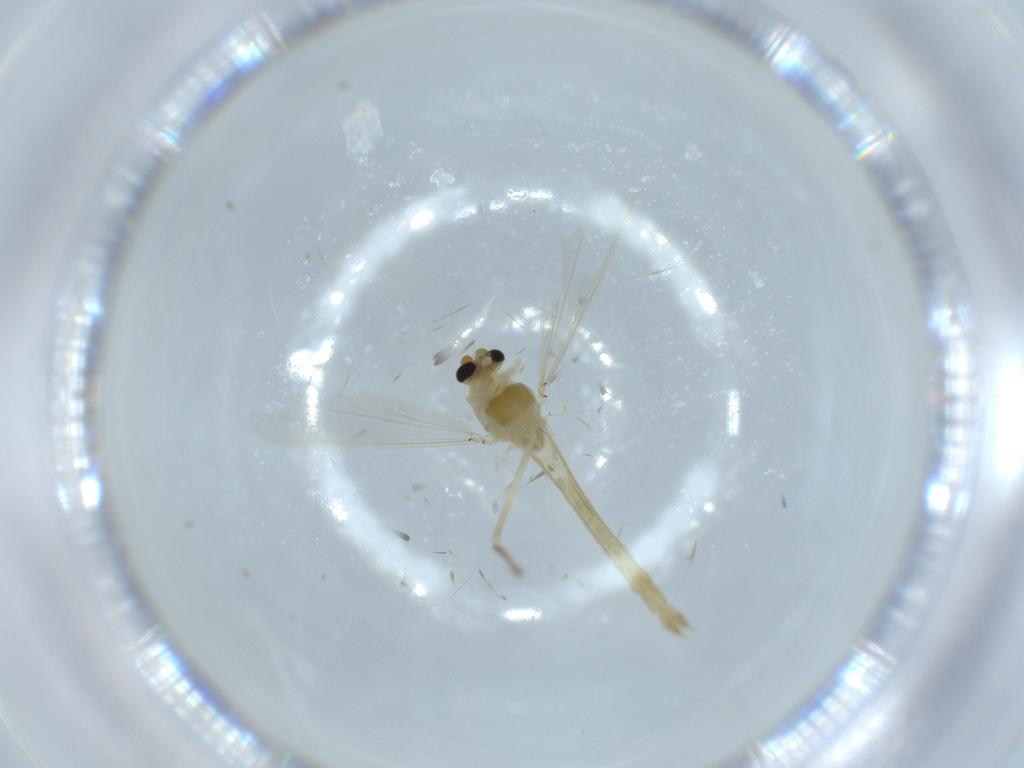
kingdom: Animalia
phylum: Arthropoda
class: Insecta
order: Diptera
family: Chironomidae
